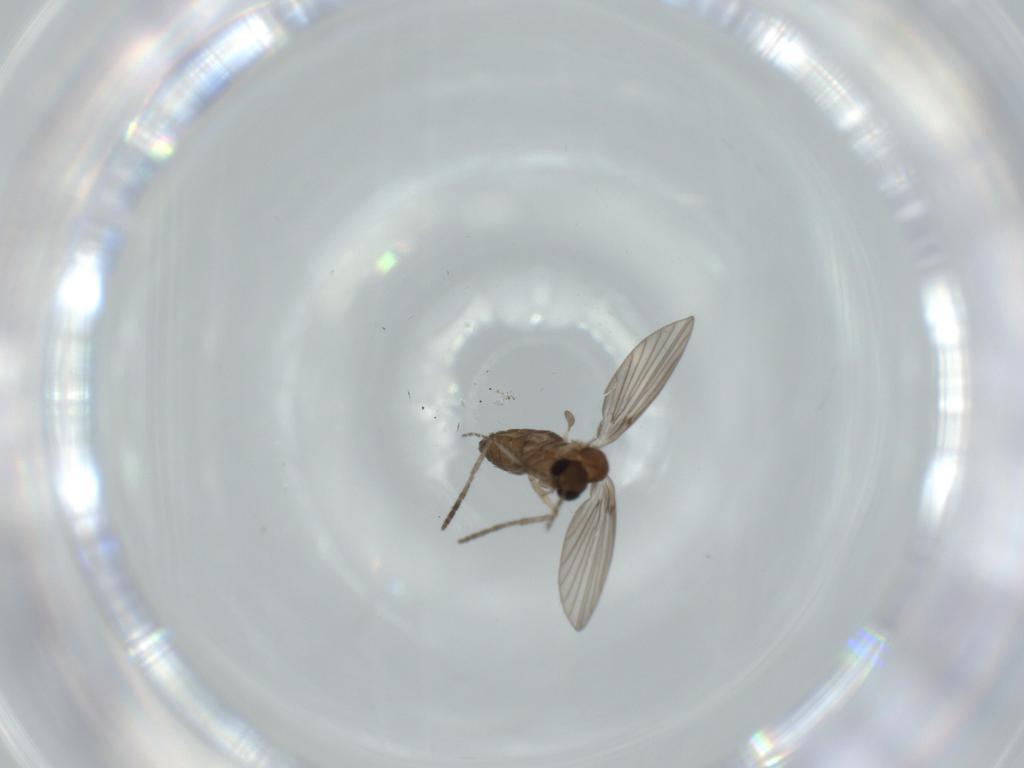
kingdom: Animalia
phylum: Arthropoda
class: Insecta
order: Diptera
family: Psychodidae
